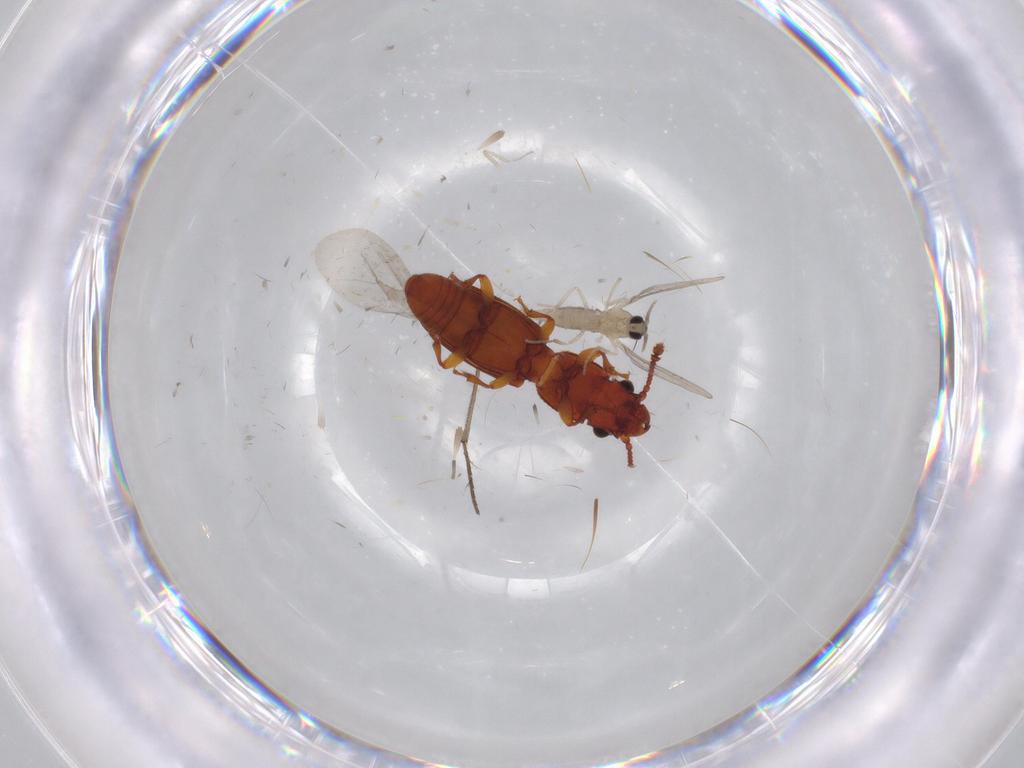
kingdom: Animalia
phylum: Arthropoda
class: Insecta
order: Diptera
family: Cecidomyiidae
